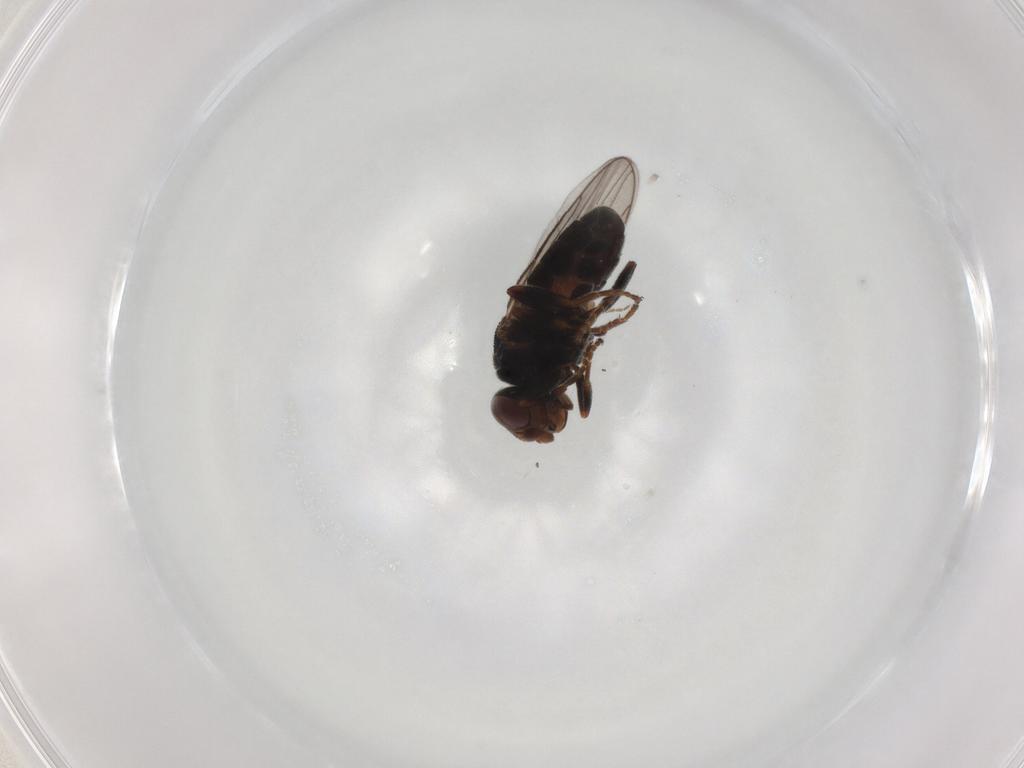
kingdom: Animalia
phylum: Arthropoda
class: Insecta
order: Diptera
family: Chloropidae
